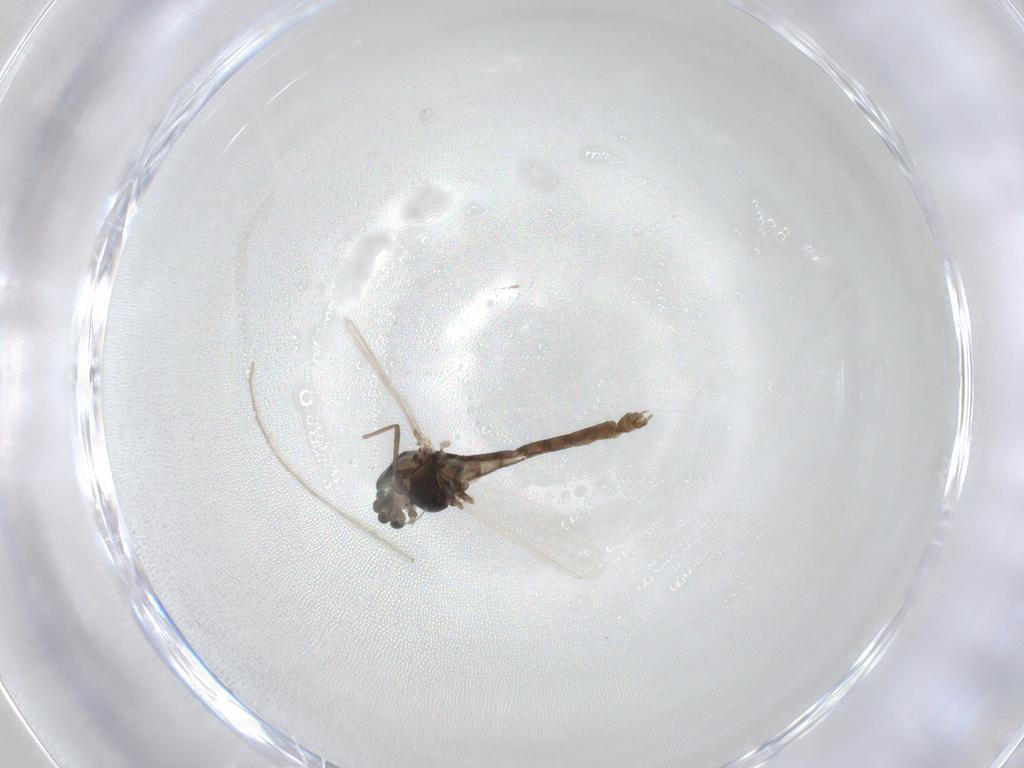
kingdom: Animalia
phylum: Arthropoda
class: Insecta
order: Diptera
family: Chironomidae
